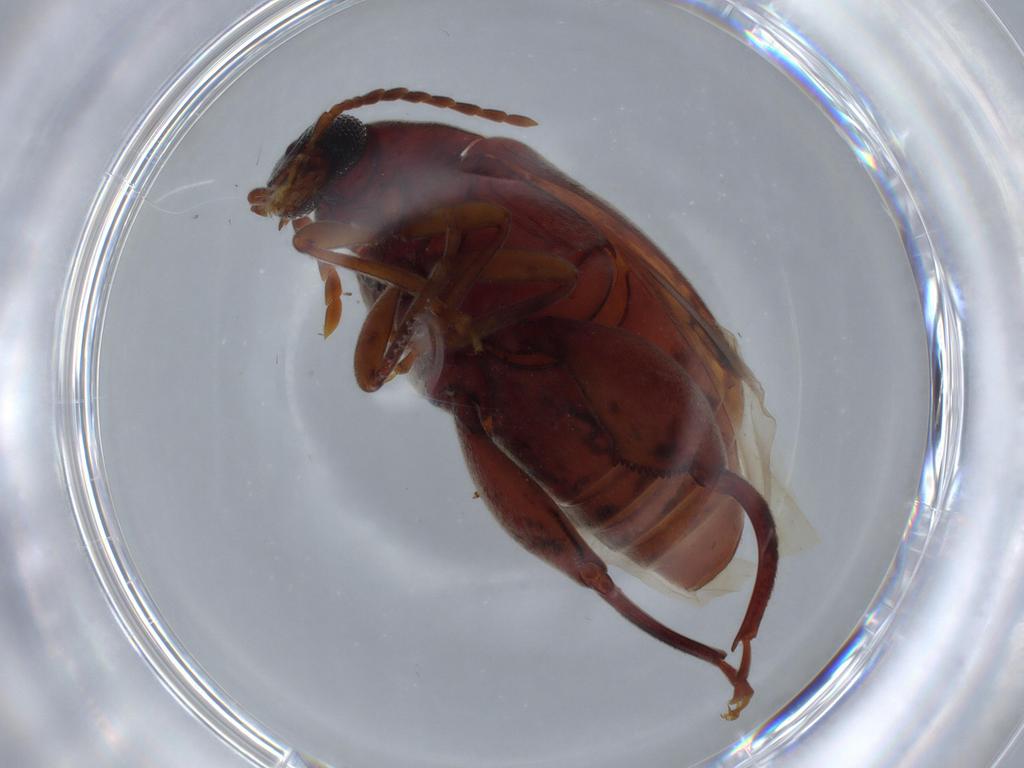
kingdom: Animalia
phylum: Arthropoda
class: Insecta
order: Coleoptera
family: Chrysomelidae
